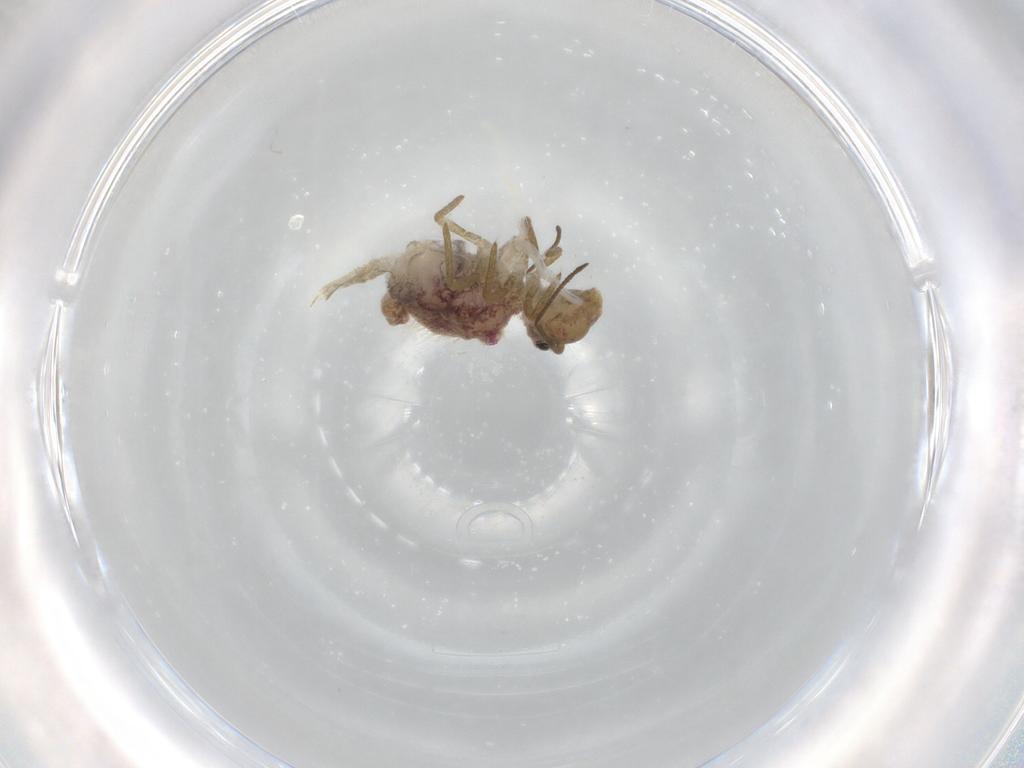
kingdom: Animalia
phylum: Arthropoda
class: Collembola
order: Symphypleona
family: Sminthuridae
